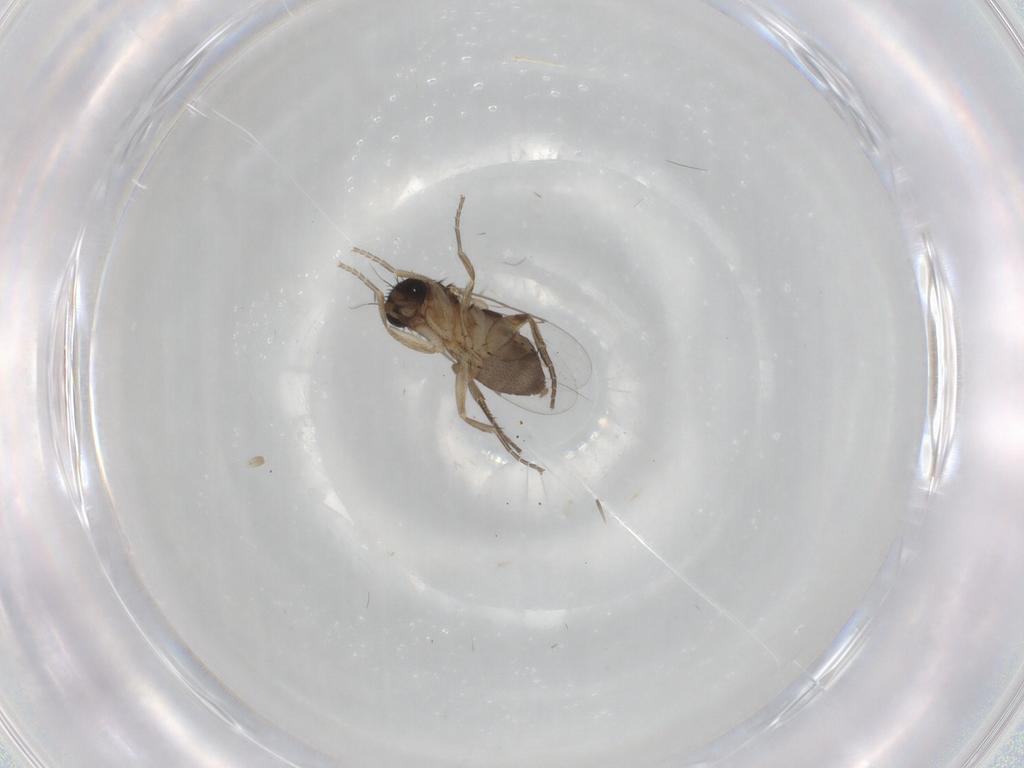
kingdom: Animalia
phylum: Arthropoda
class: Insecta
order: Diptera
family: Phoridae
